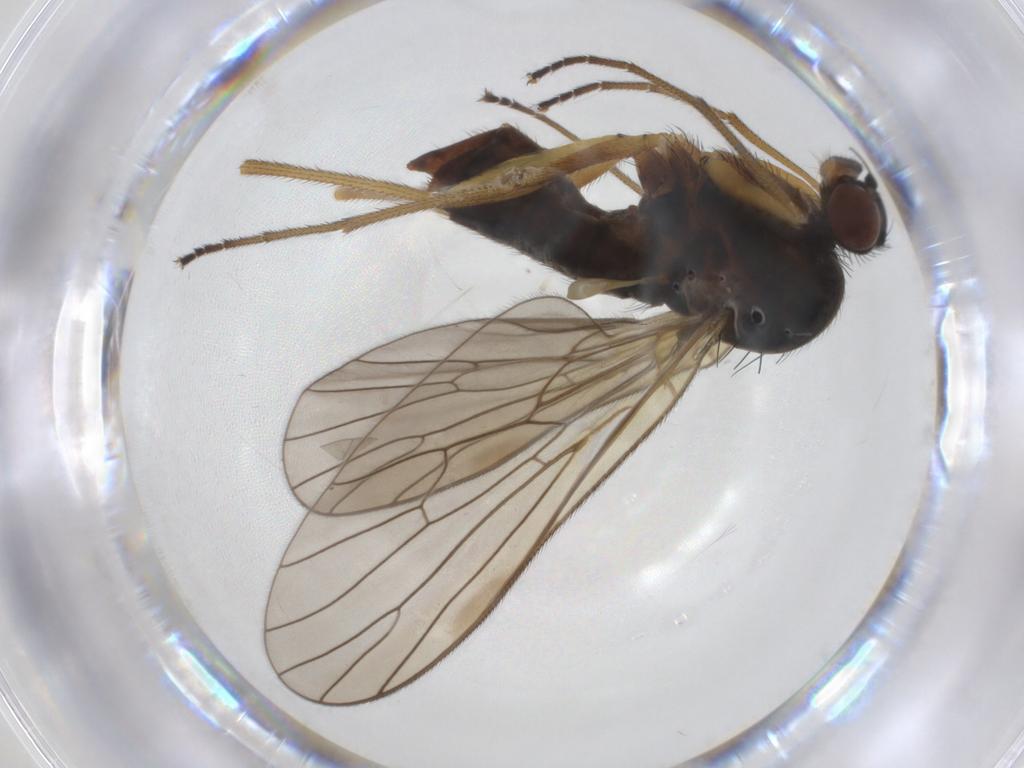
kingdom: Animalia
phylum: Arthropoda
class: Insecta
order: Diptera
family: Brachystomatidae
